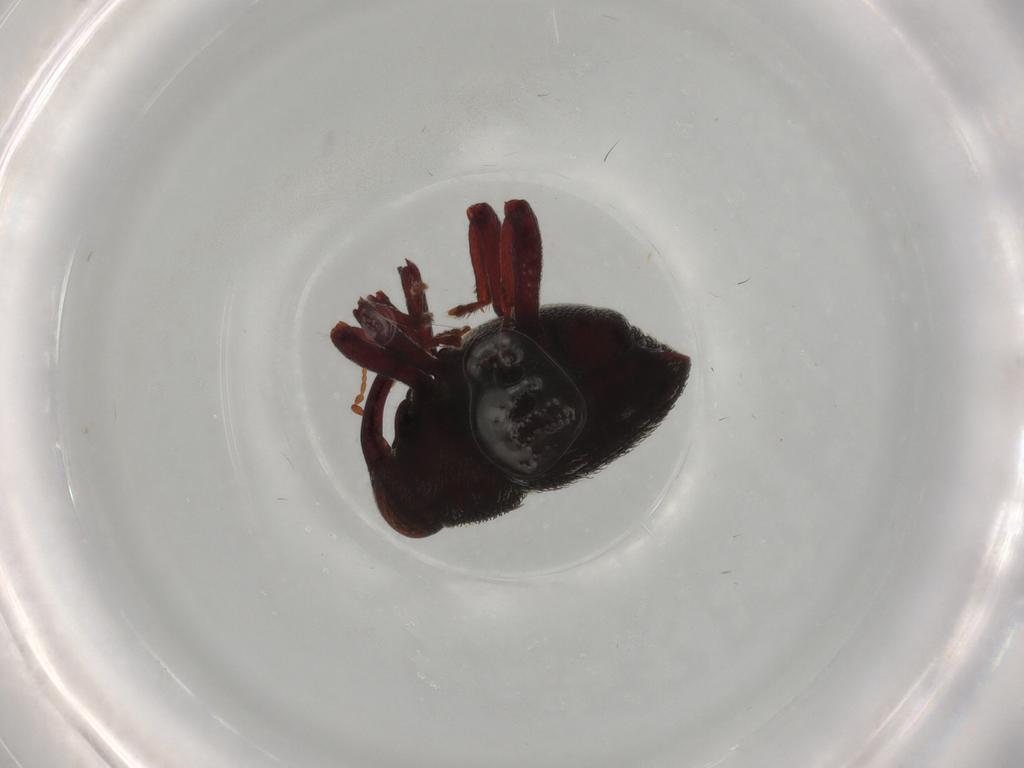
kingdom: Animalia
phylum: Arthropoda
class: Insecta
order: Coleoptera
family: Curculionidae
